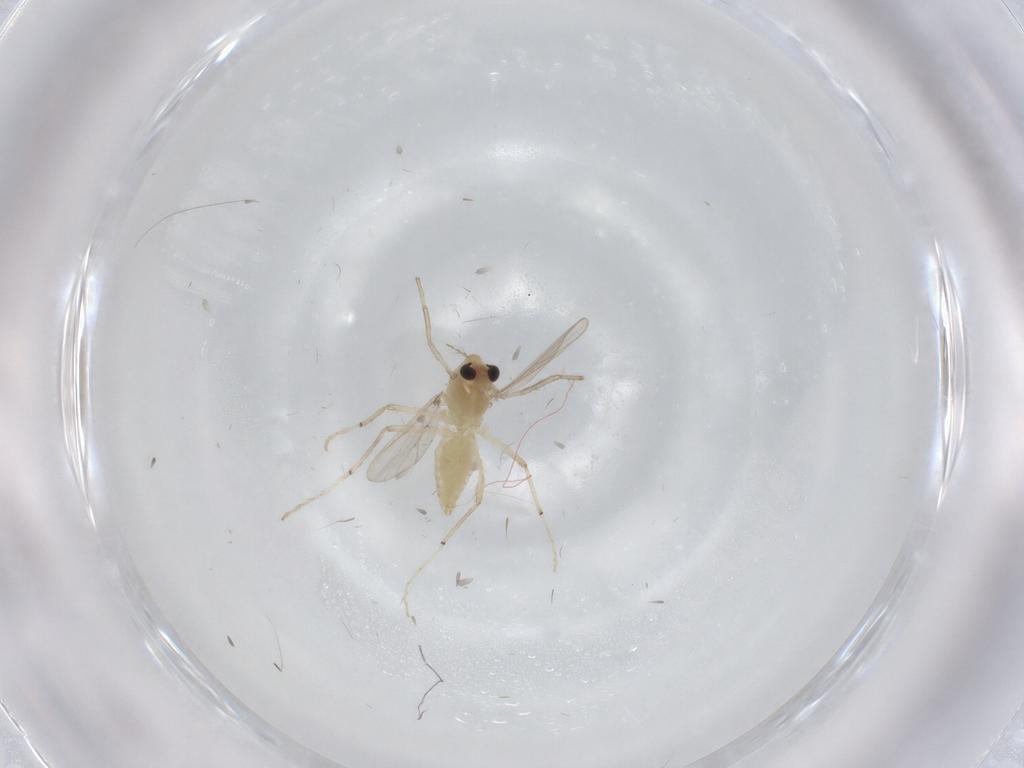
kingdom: Animalia
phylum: Arthropoda
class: Insecta
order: Diptera
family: Chironomidae
